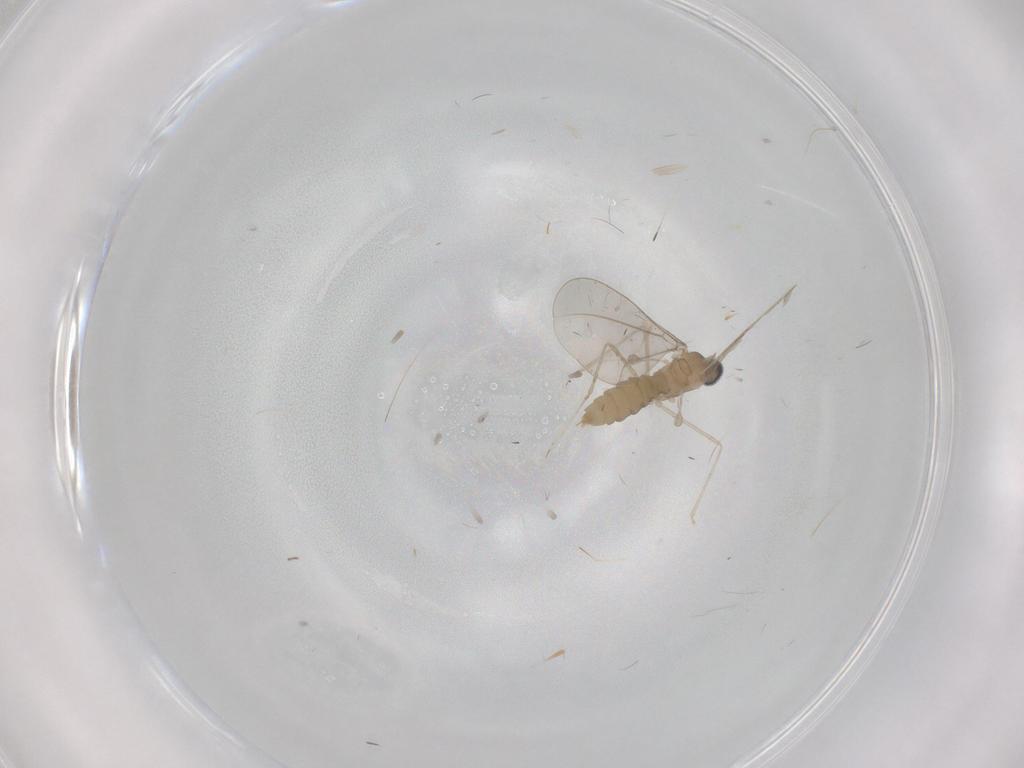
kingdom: Animalia
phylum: Arthropoda
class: Insecta
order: Diptera
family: Chironomidae
